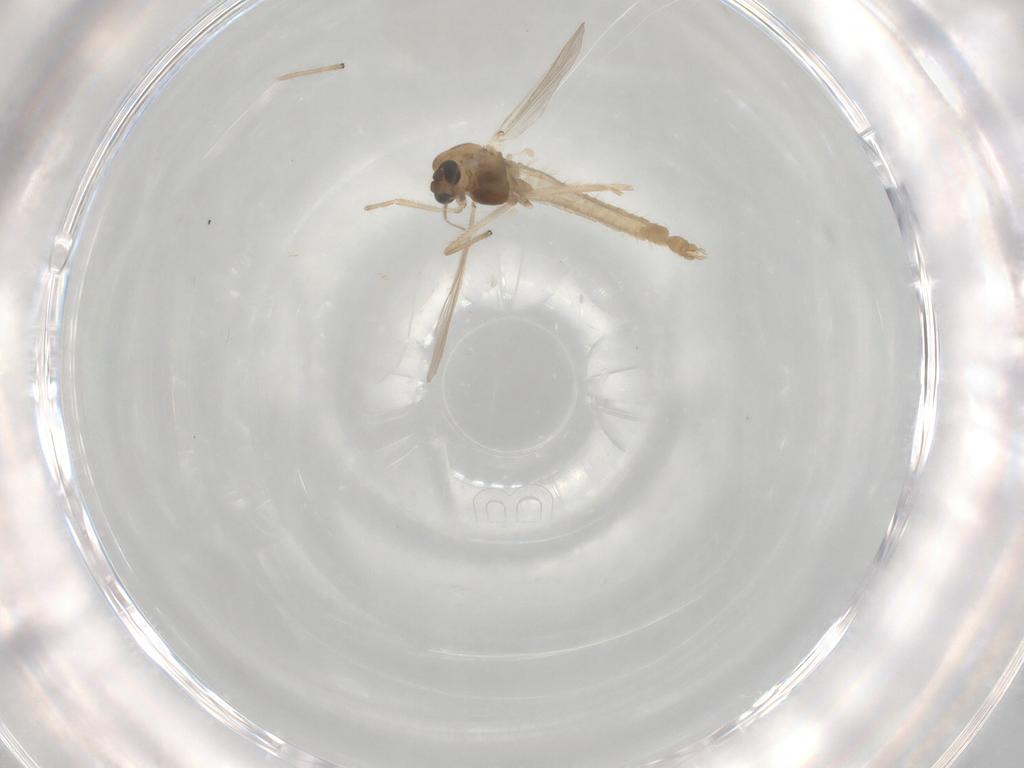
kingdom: Animalia
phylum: Arthropoda
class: Insecta
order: Diptera
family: Chironomidae
